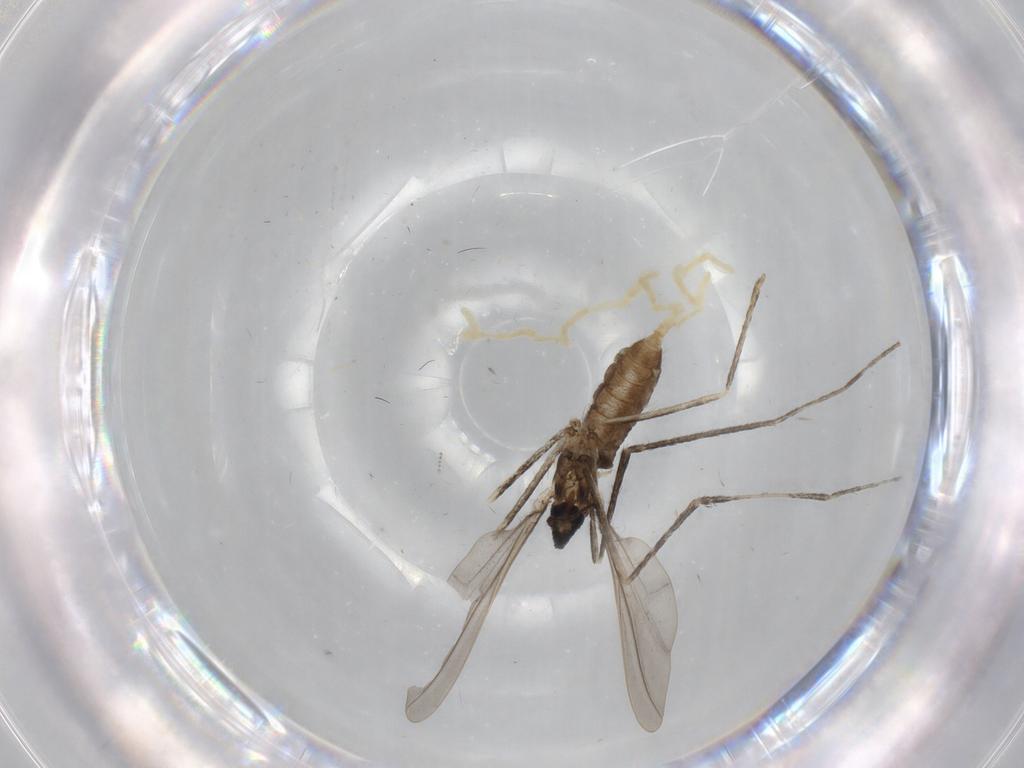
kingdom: Animalia
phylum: Arthropoda
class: Insecta
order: Diptera
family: Cecidomyiidae
